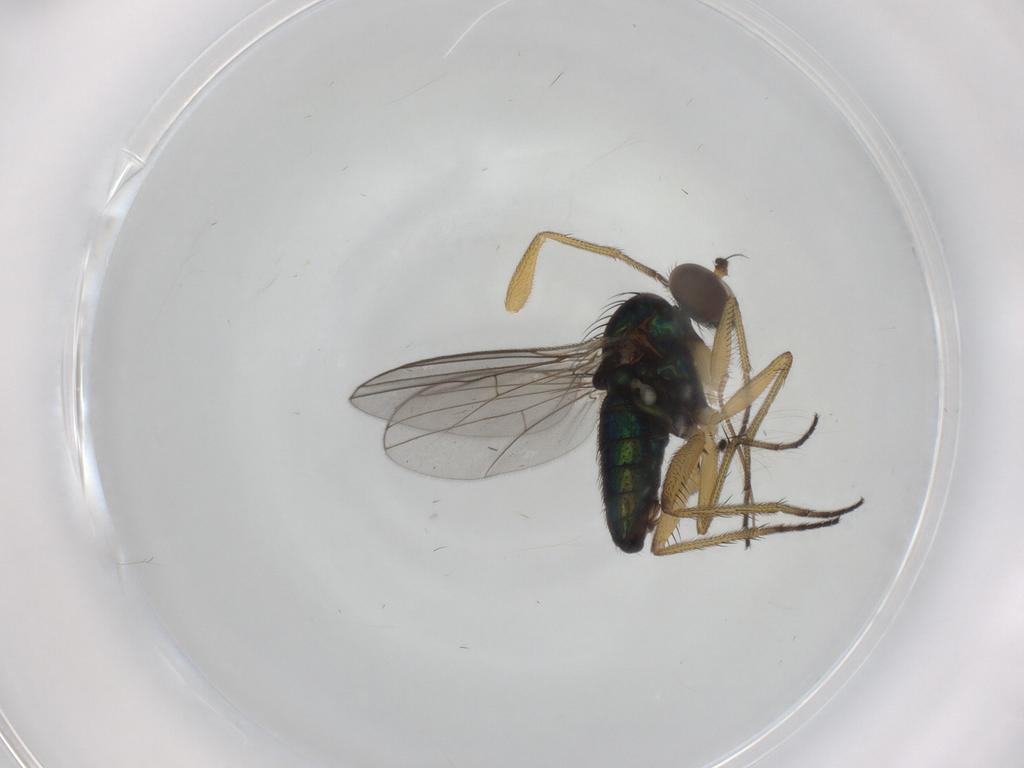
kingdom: Animalia
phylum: Arthropoda
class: Insecta
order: Diptera
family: Dolichopodidae
